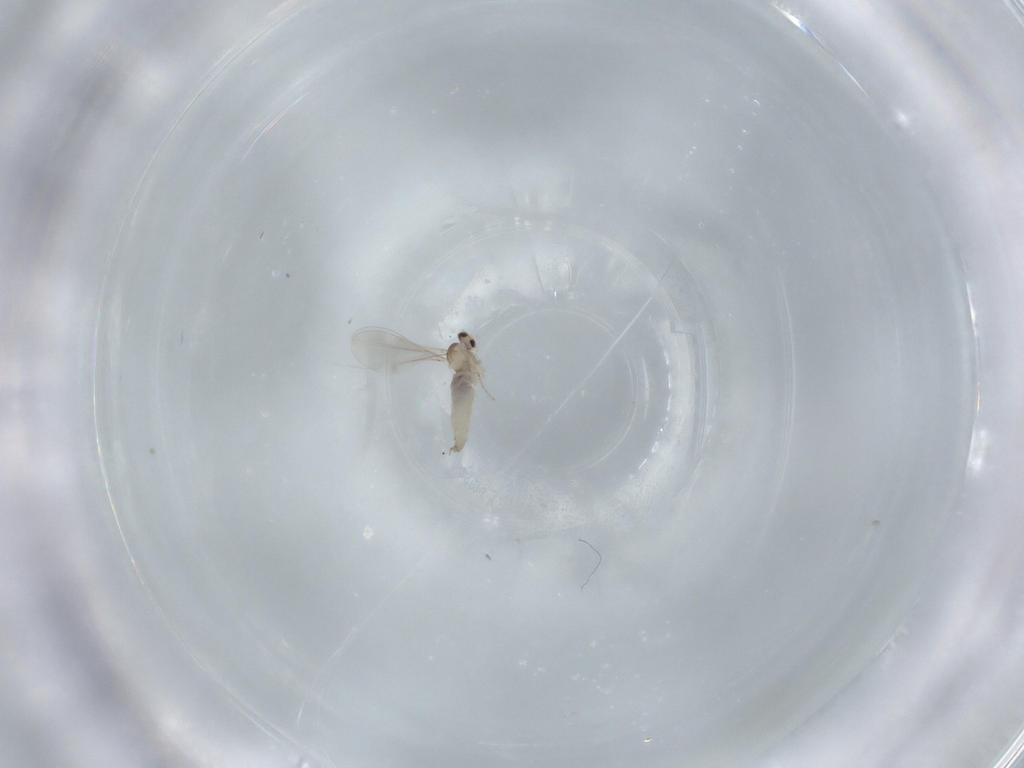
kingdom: Animalia
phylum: Arthropoda
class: Insecta
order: Diptera
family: Cecidomyiidae
